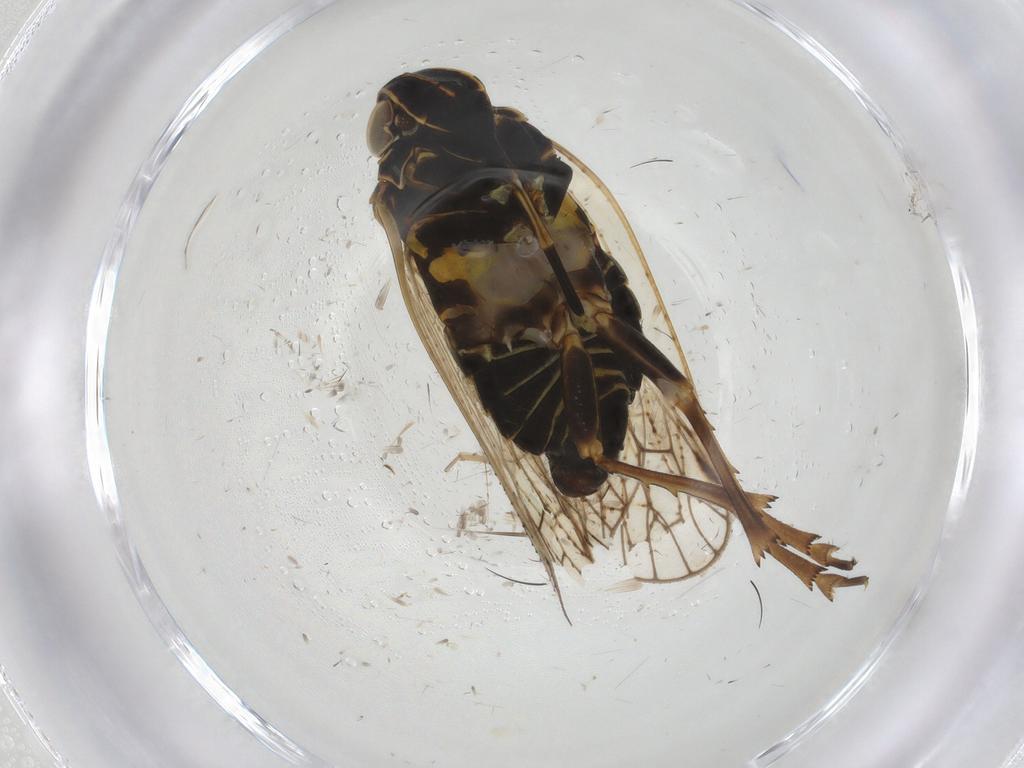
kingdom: Animalia
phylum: Arthropoda
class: Insecta
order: Hemiptera
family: Cixiidae
